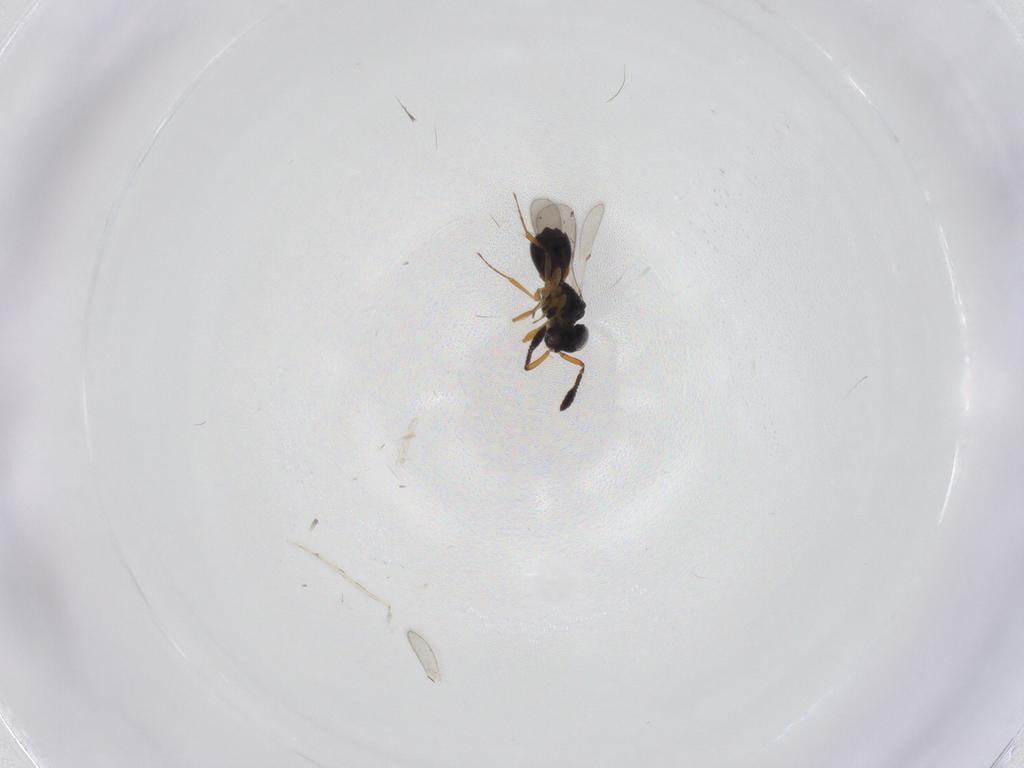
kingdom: Animalia
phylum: Arthropoda
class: Insecta
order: Hymenoptera
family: Scelionidae
